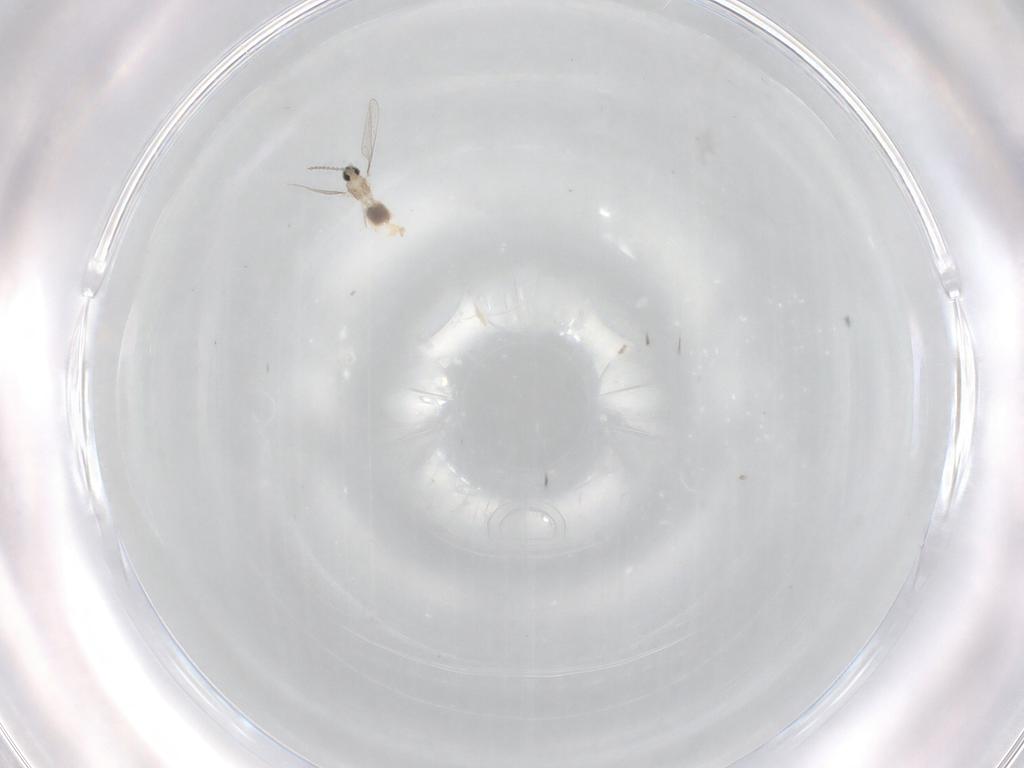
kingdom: Animalia
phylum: Arthropoda
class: Insecta
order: Diptera
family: Cecidomyiidae
